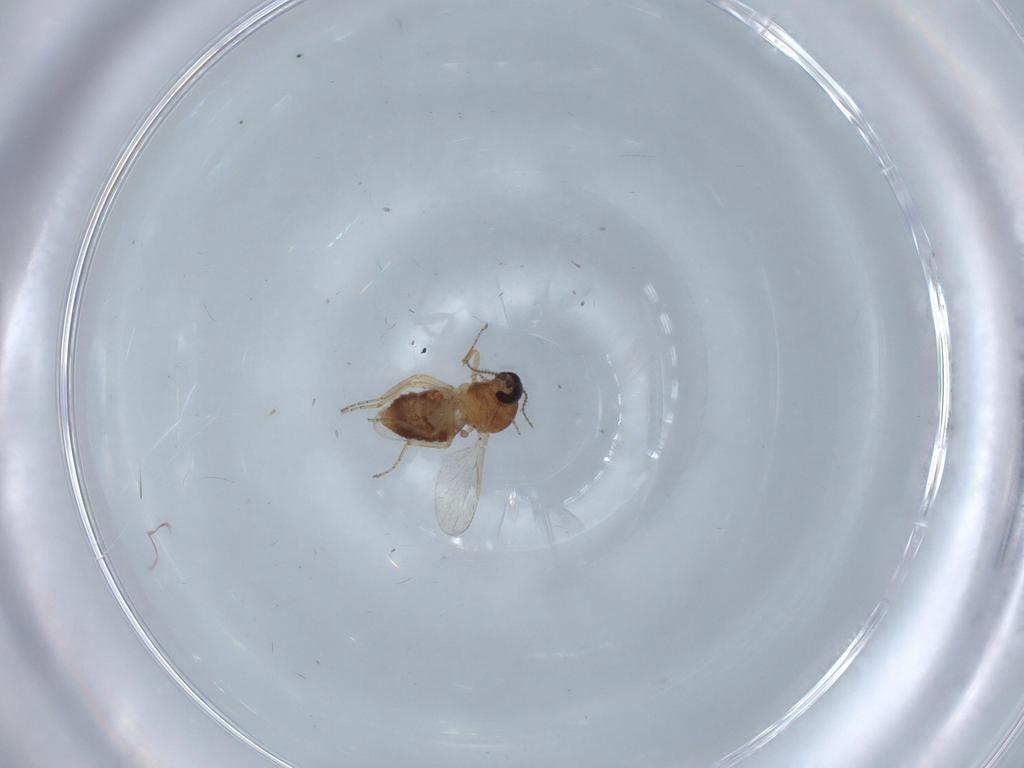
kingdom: Animalia
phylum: Arthropoda
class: Insecta
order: Diptera
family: Ceratopogonidae
